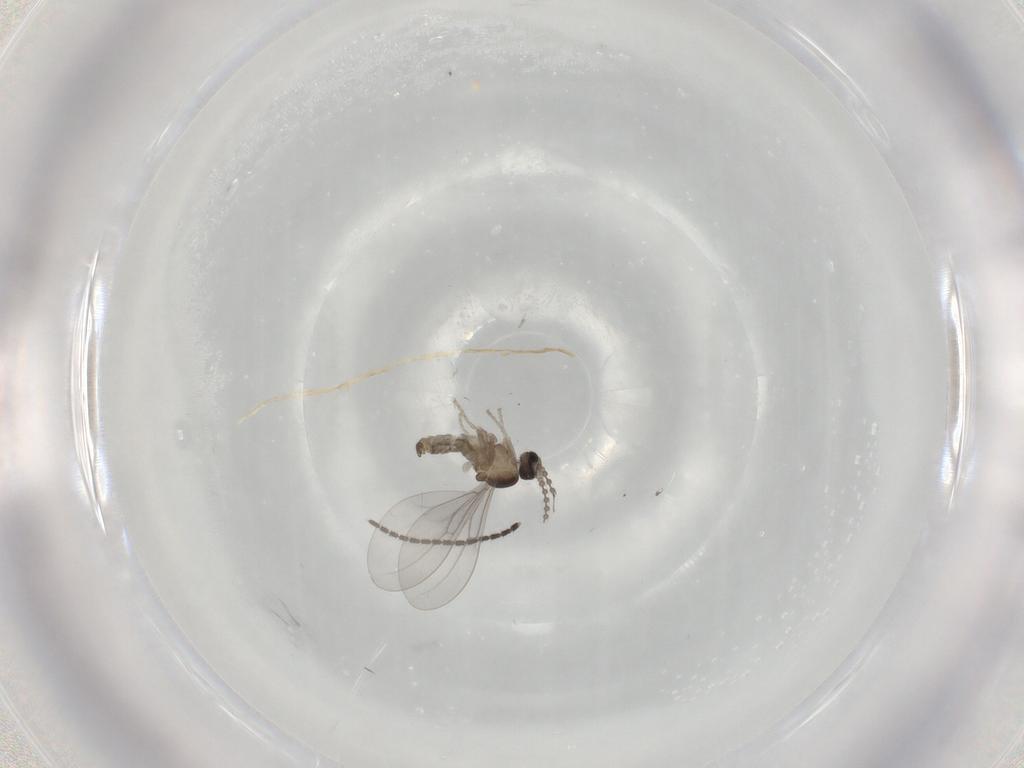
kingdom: Animalia
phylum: Arthropoda
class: Insecta
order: Diptera
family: Cecidomyiidae
